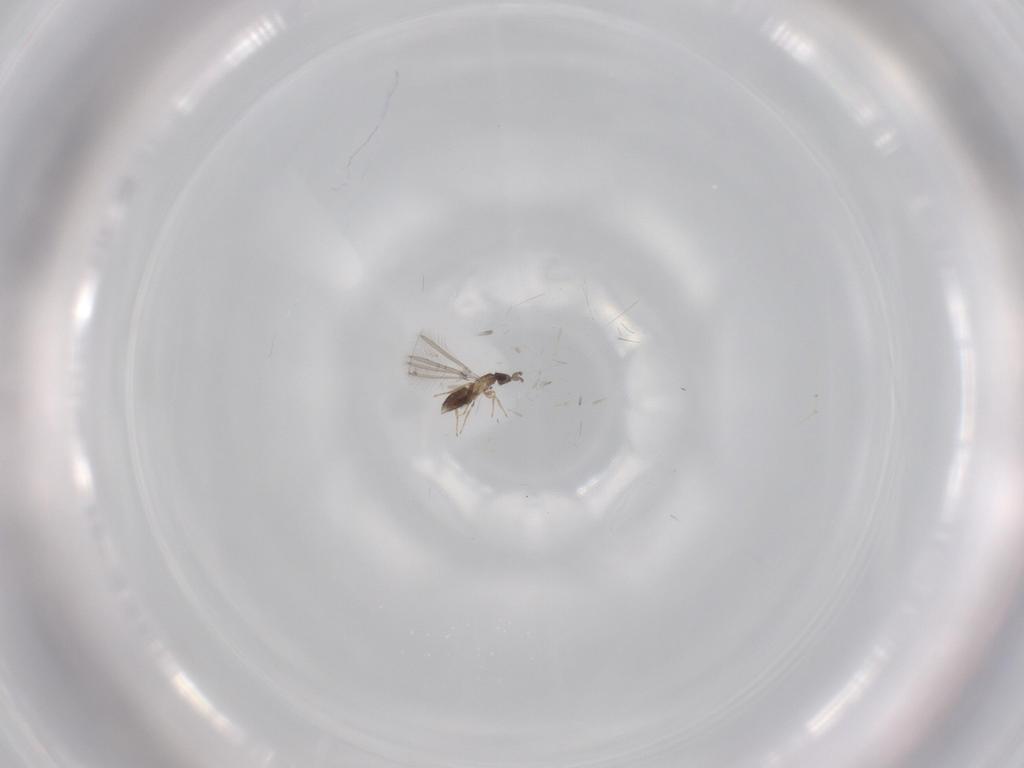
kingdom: Animalia
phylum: Arthropoda
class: Insecta
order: Hymenoptera
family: Mymaridae
